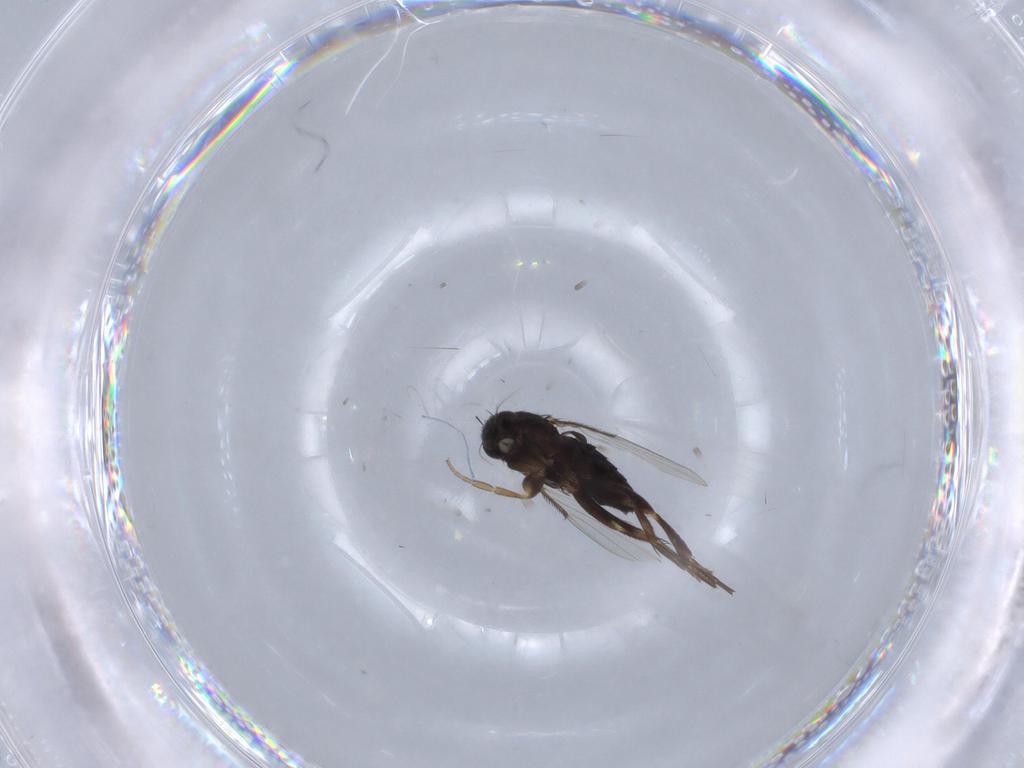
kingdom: Animalia
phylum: Arthropoda
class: Insecta
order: Diptera
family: Phoridae
